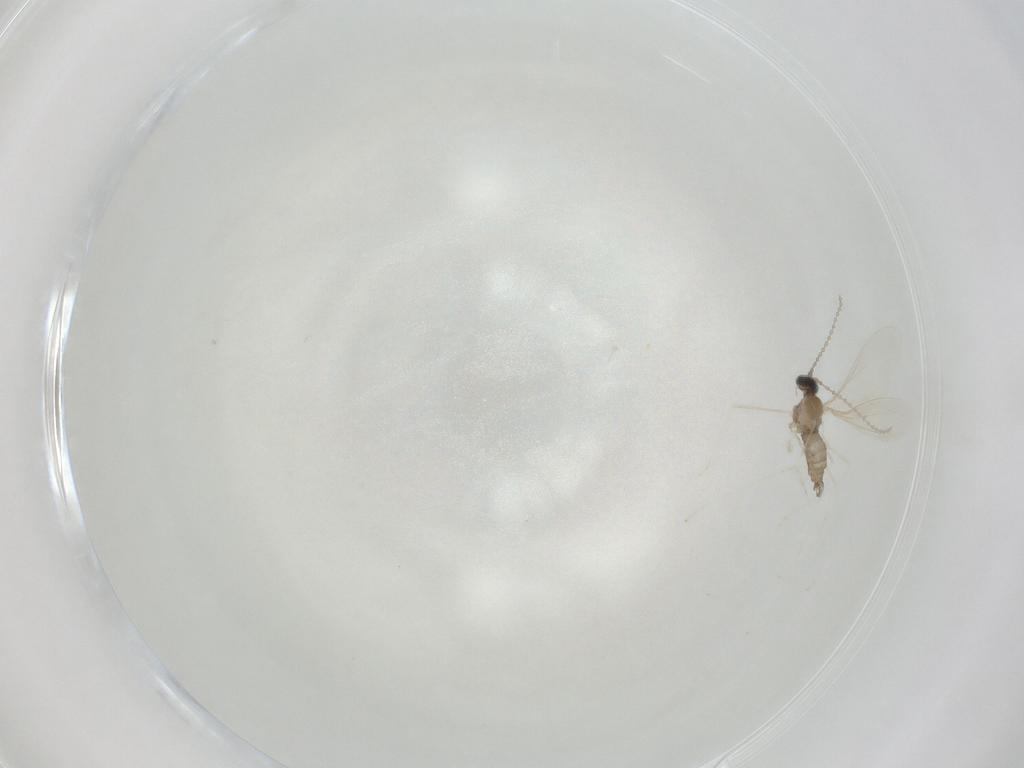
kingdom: Animalia
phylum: Arthropoda
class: Insecta
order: Diptera
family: Cecidomyiidae
